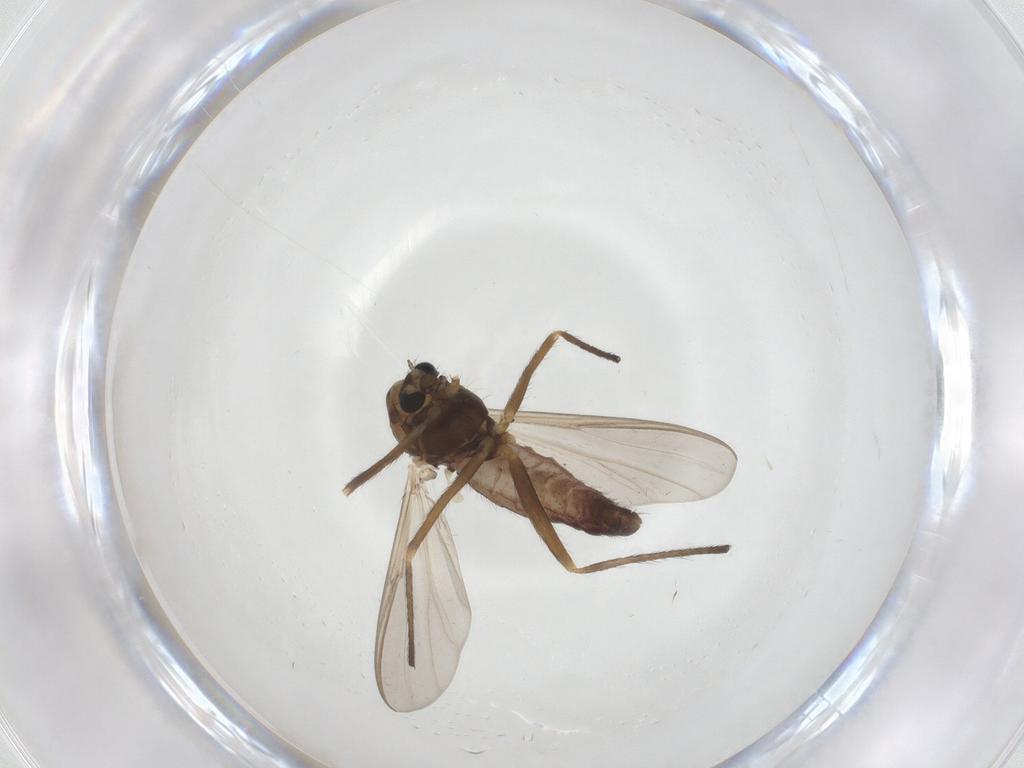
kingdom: Animalia
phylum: Arthropoda
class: Insecta
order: Diptera
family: Chironomidae
